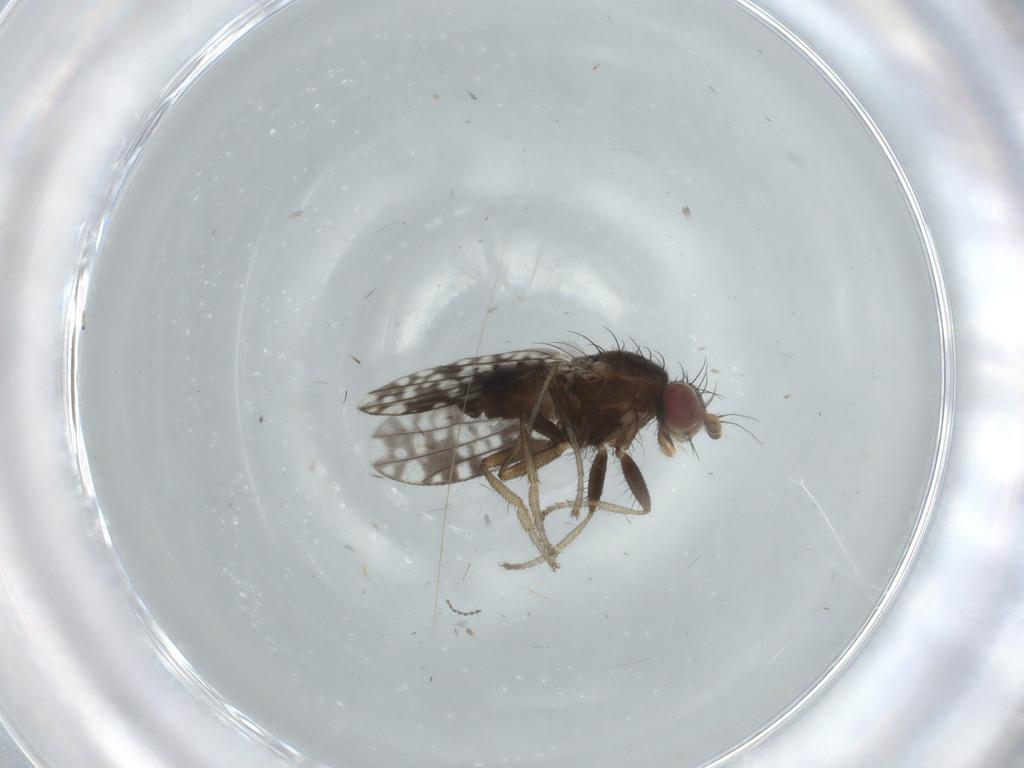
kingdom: Animalia
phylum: Arthropoda
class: Insecta
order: Diptera
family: Tephritidae
